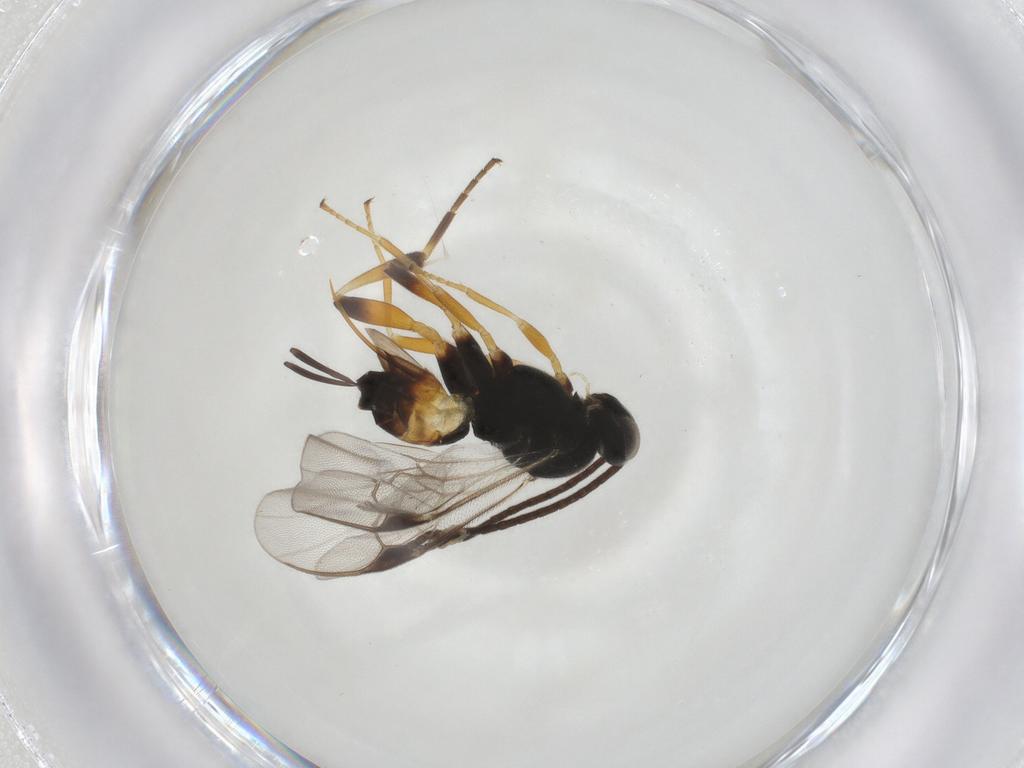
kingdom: Animalia
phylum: Arthropoda
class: Insecta
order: Hymenoptera
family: Braconidae
